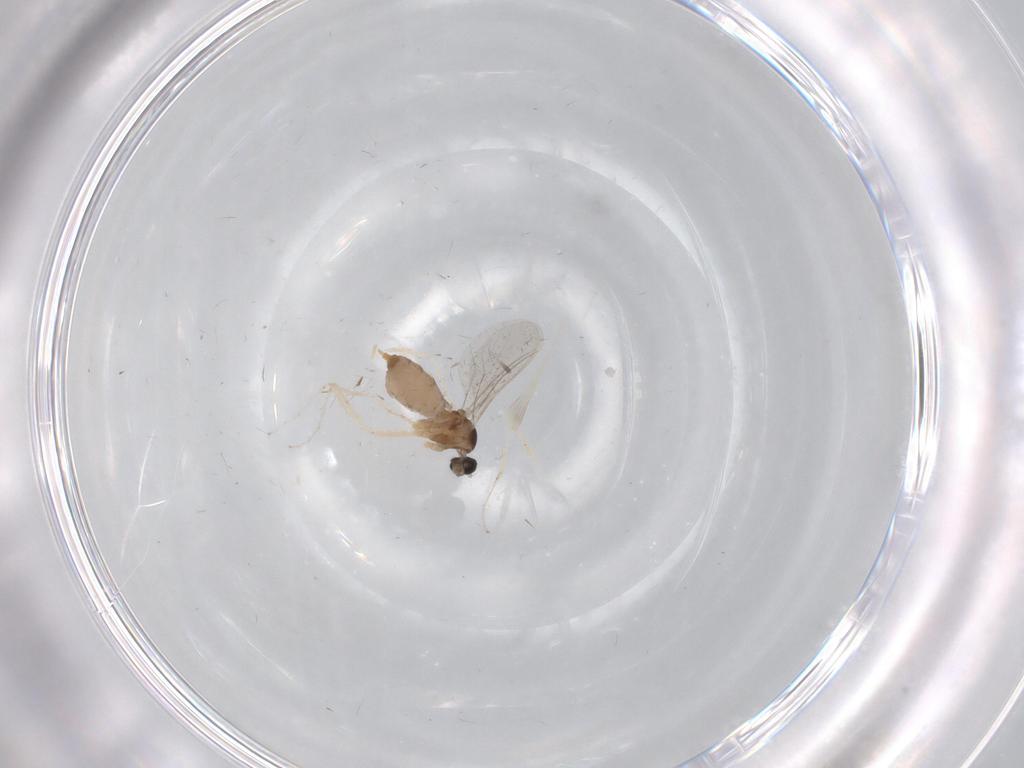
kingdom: Animalia
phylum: Arthropoda
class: Insecta
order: Diptera
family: Cecidomyiidae
